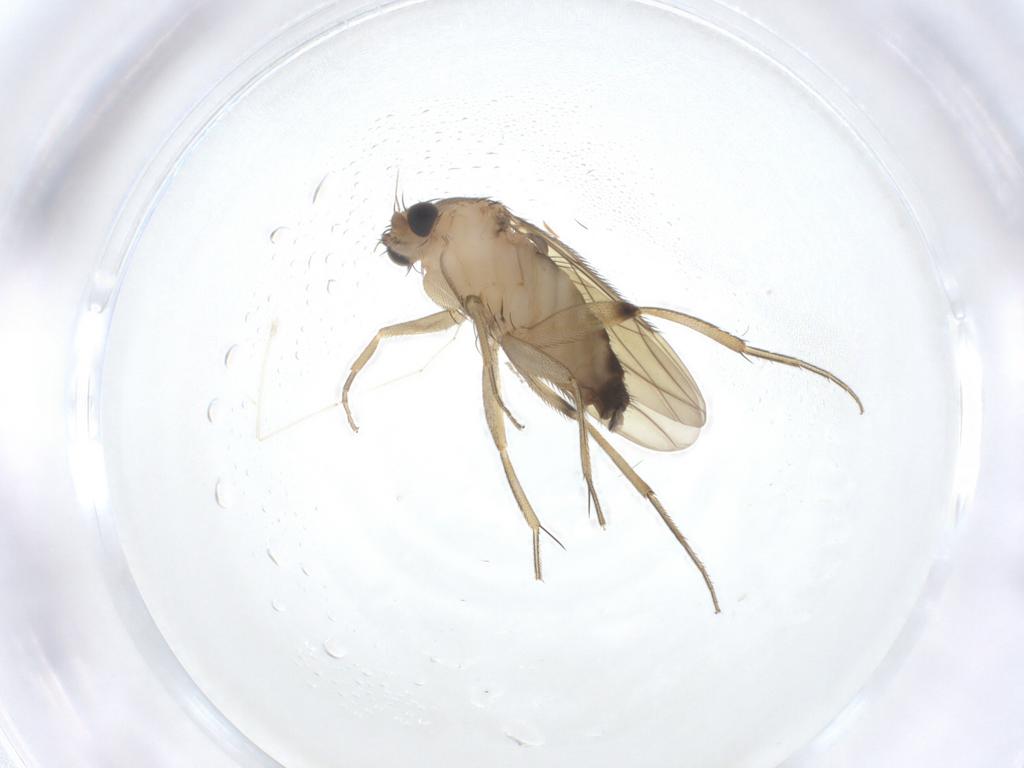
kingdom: Animalia
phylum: Arthropoda
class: Insecta
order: Diptera
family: Phoridae
